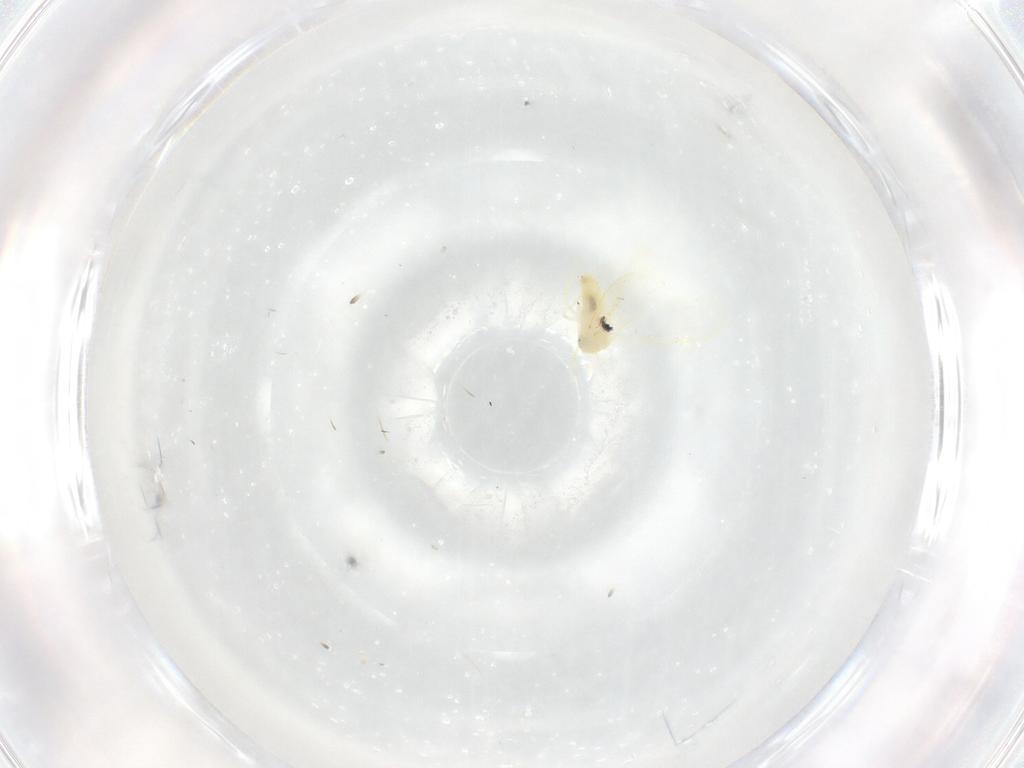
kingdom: Animalia
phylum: Arthropoda
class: Insecta
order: Hemiptera
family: Aleyrodidae
